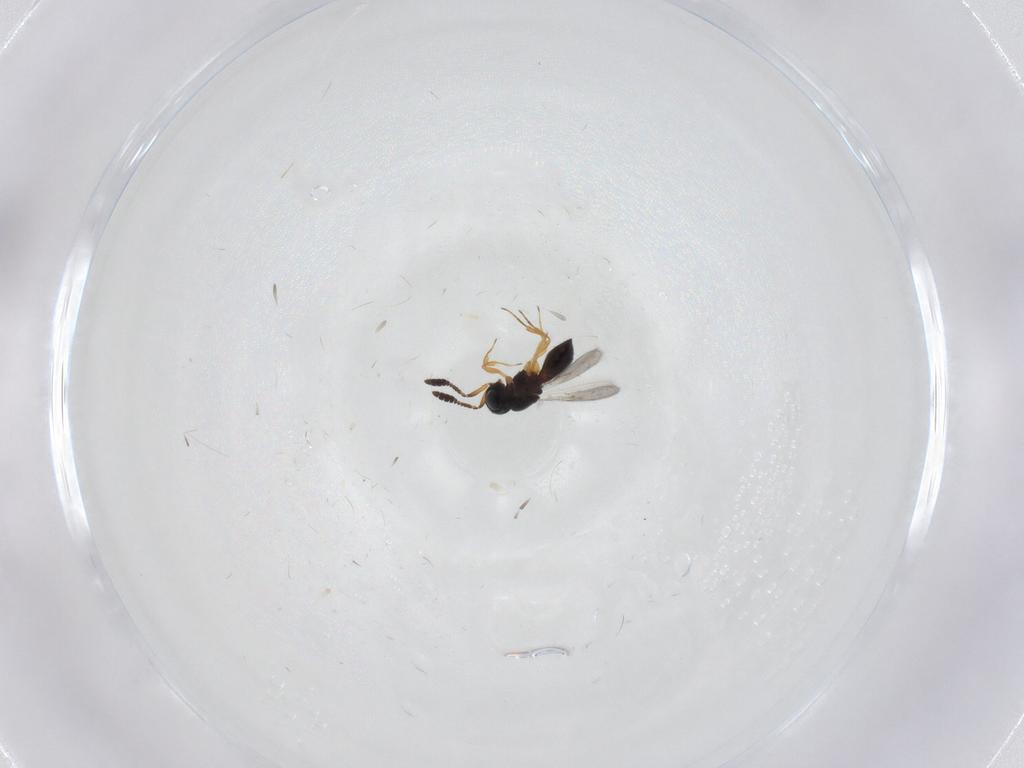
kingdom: Animalia
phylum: Arthropoda
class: Insecta
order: Hymenoptera
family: Scelionidae
